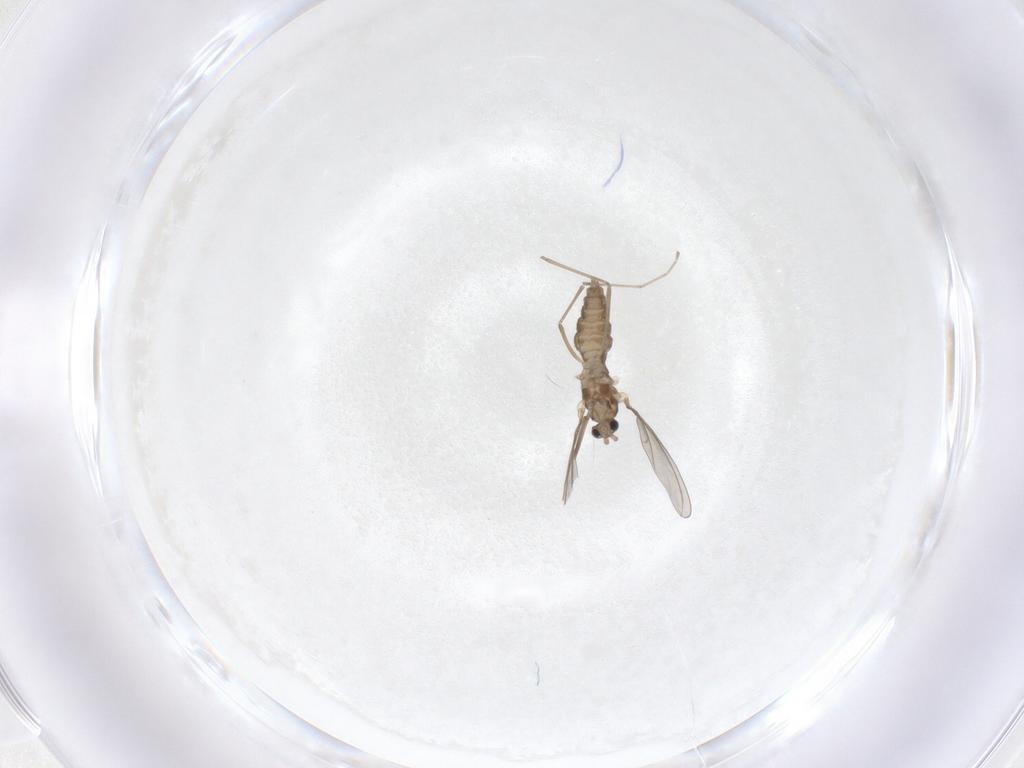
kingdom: Animalia
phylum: Arthropoda
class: Insecta
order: Diptera
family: Cecidomyiidae
